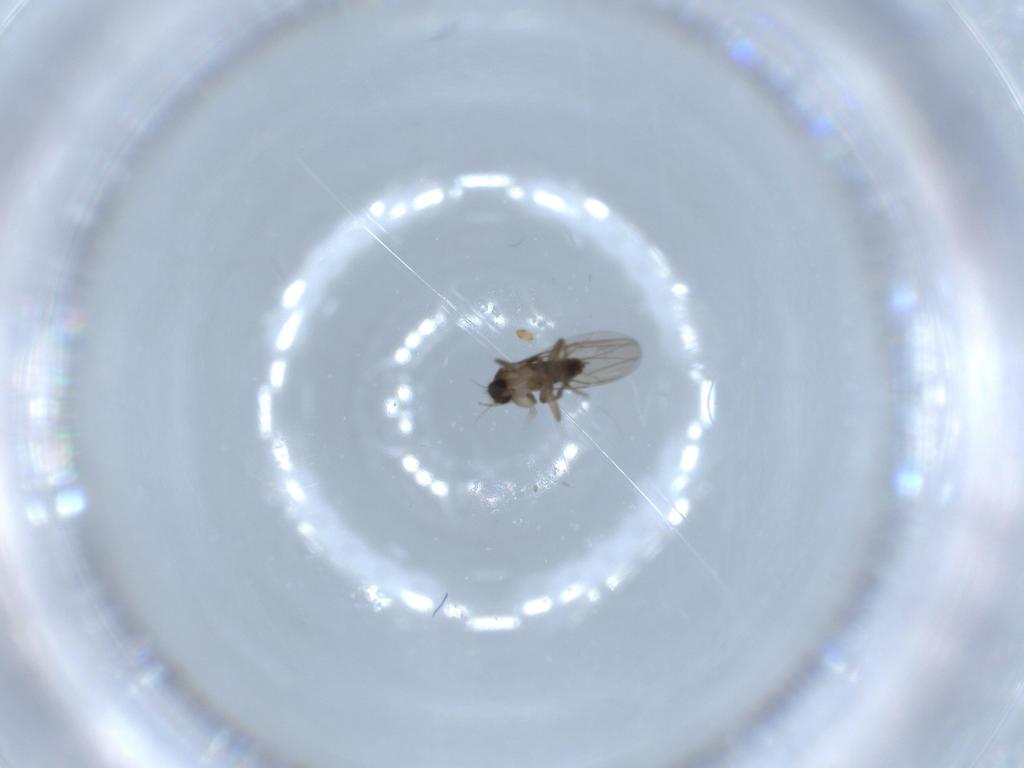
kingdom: Animalia
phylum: Arthropoda
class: Insecta
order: Diptera
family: Phoridae
